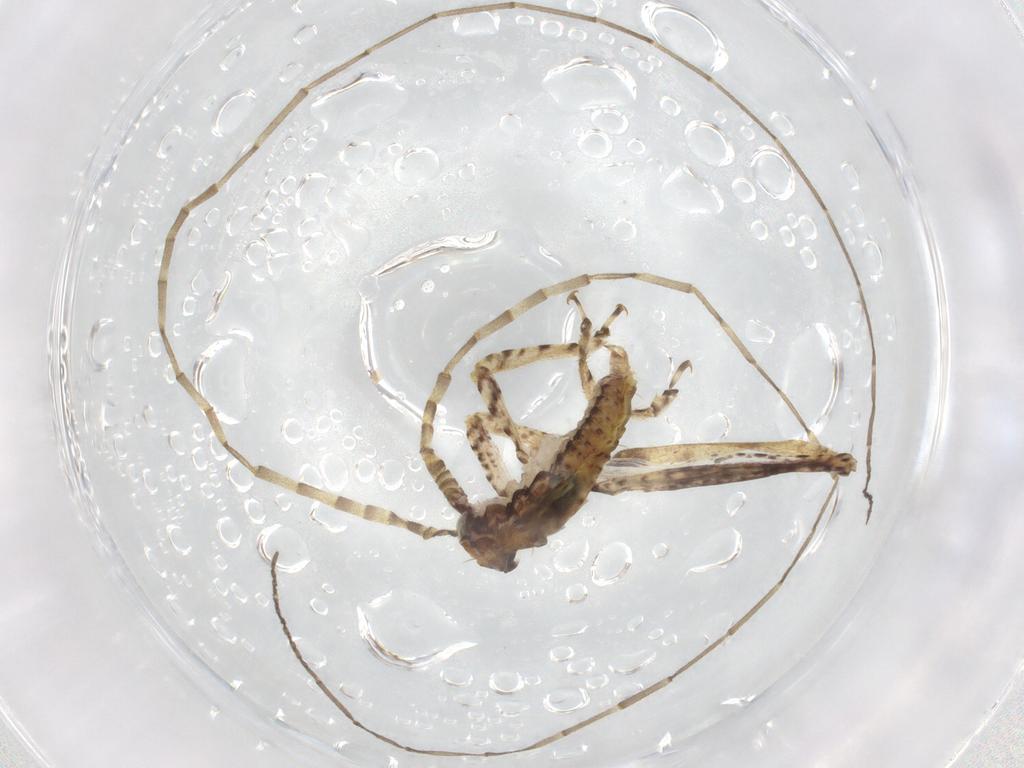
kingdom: Animalia
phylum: Arthropoda
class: Insecta
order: Orthoptera
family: Gryllidae
